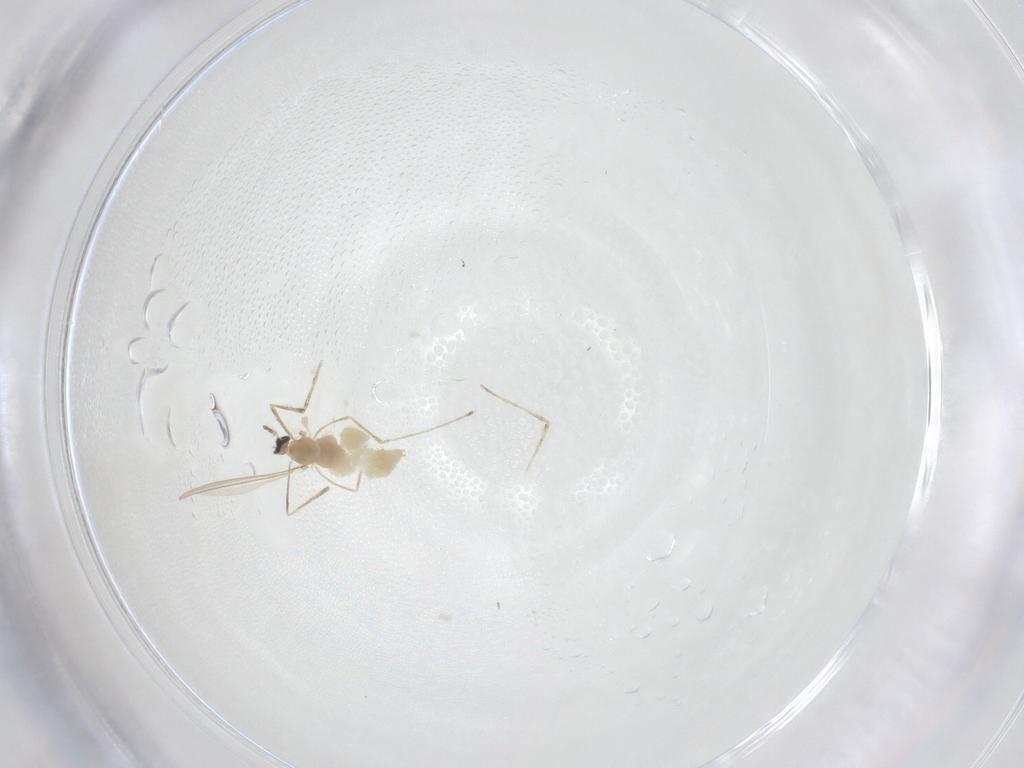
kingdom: Animalia
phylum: Arthropoda
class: Insecta
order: Diptera
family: Cecidomyiidae
